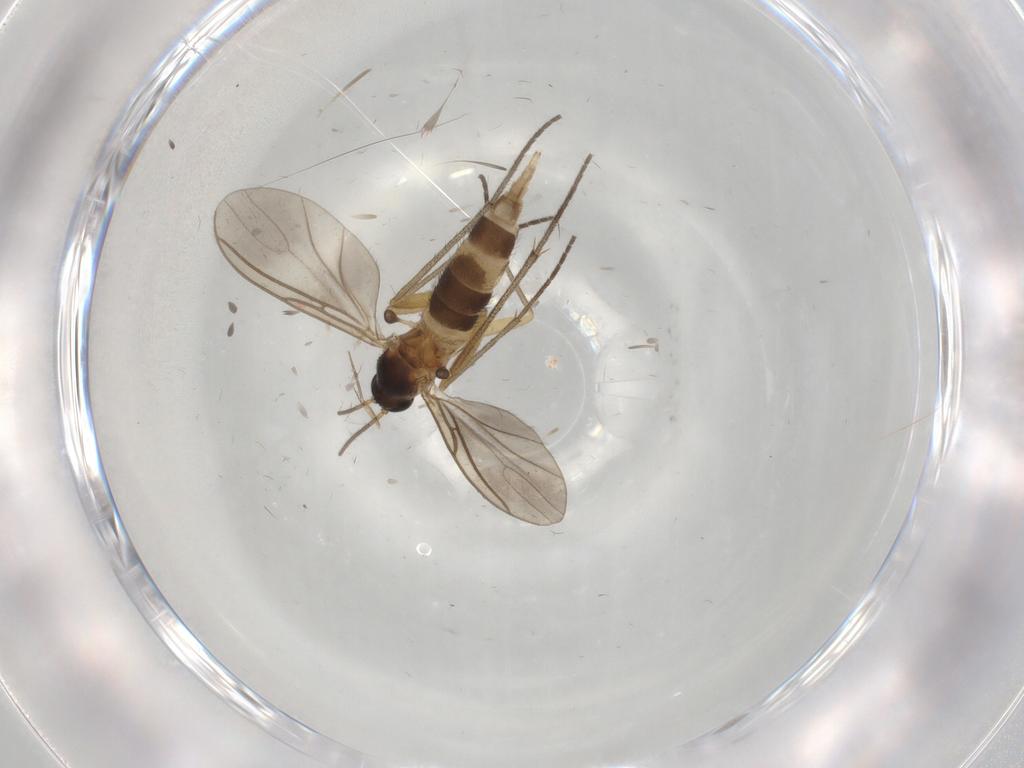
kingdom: Animalia
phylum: Arthropoda
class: Insecta
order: Diptera
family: Sciaridae
